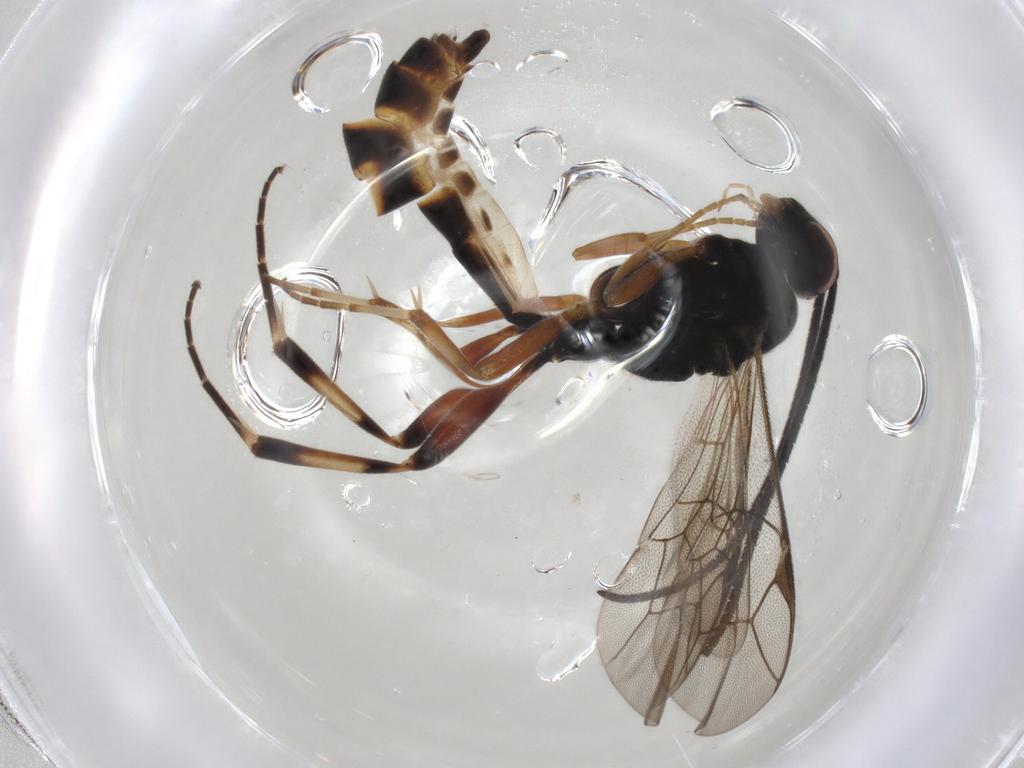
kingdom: Animalia
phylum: Arthropoda
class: Insecta
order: Hymenoptera
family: Ichneumonidae
